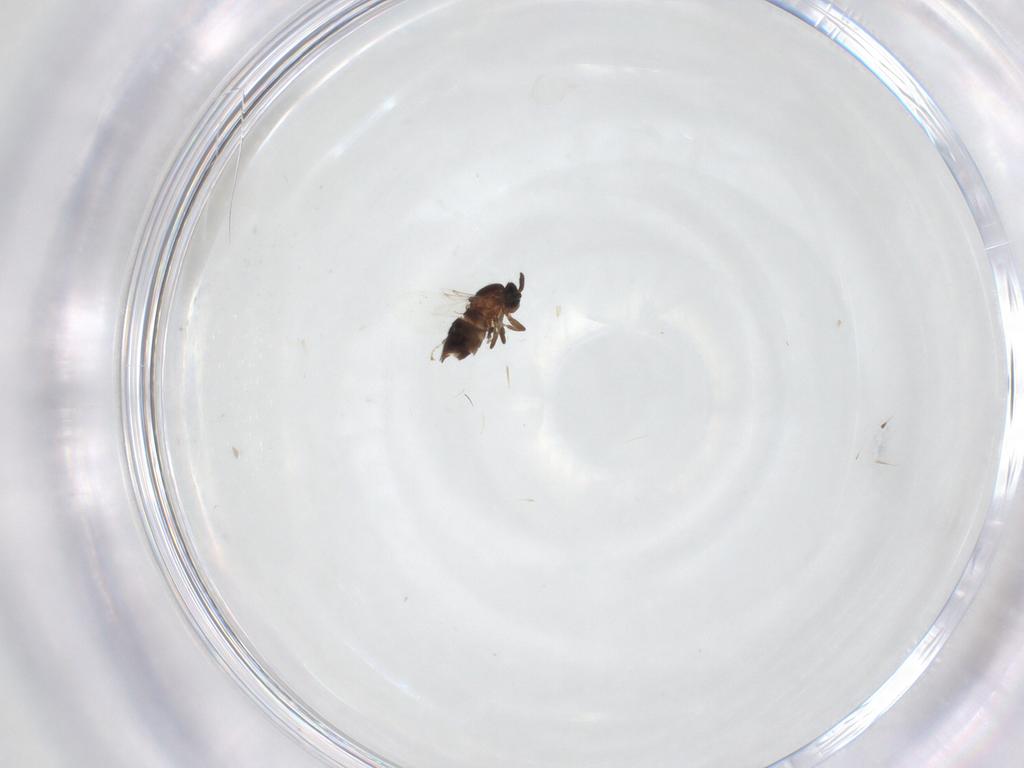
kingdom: Animalia
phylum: Arthropoda
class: Insecta
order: Diptera
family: Scatopsidae
